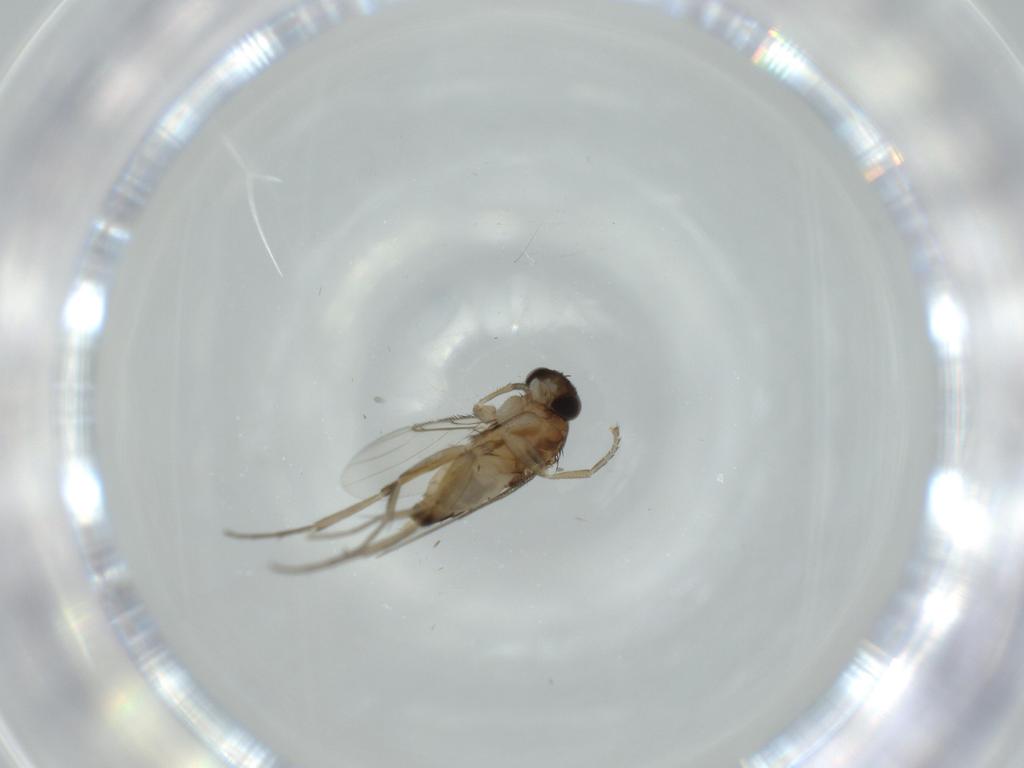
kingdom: Animalia
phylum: Arthropoda
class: Insecta
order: Diptera
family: Phoridae
